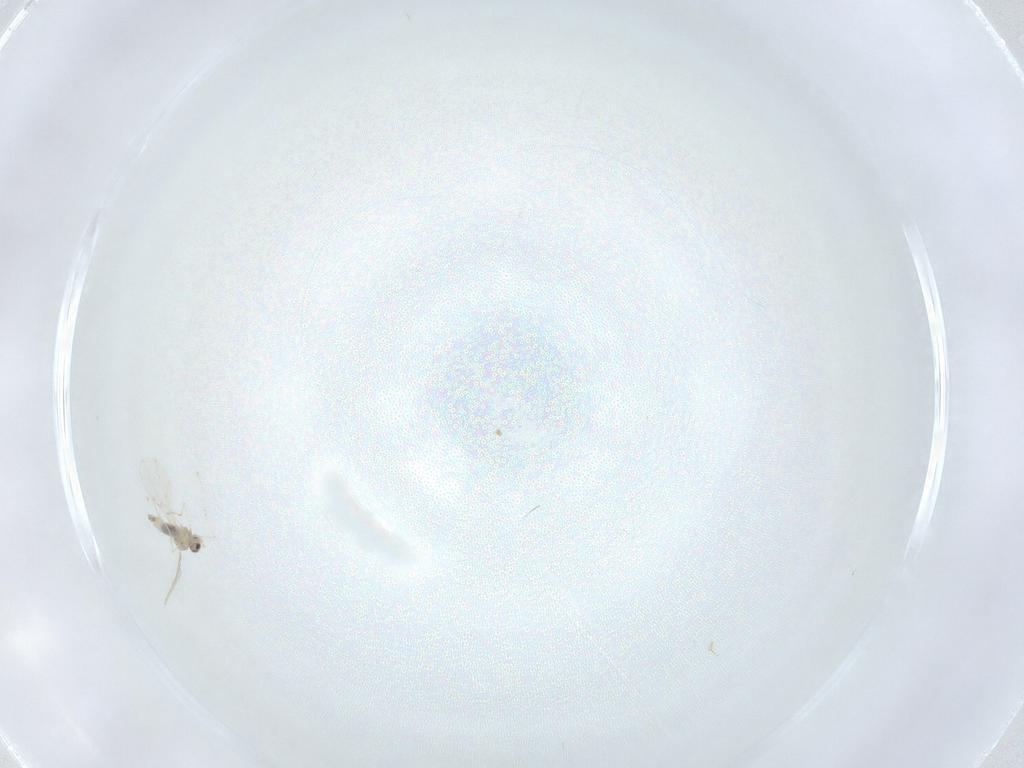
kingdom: Animalia
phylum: Arthropoda
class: Insecta
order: Diptera
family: Cecidomyiidae
